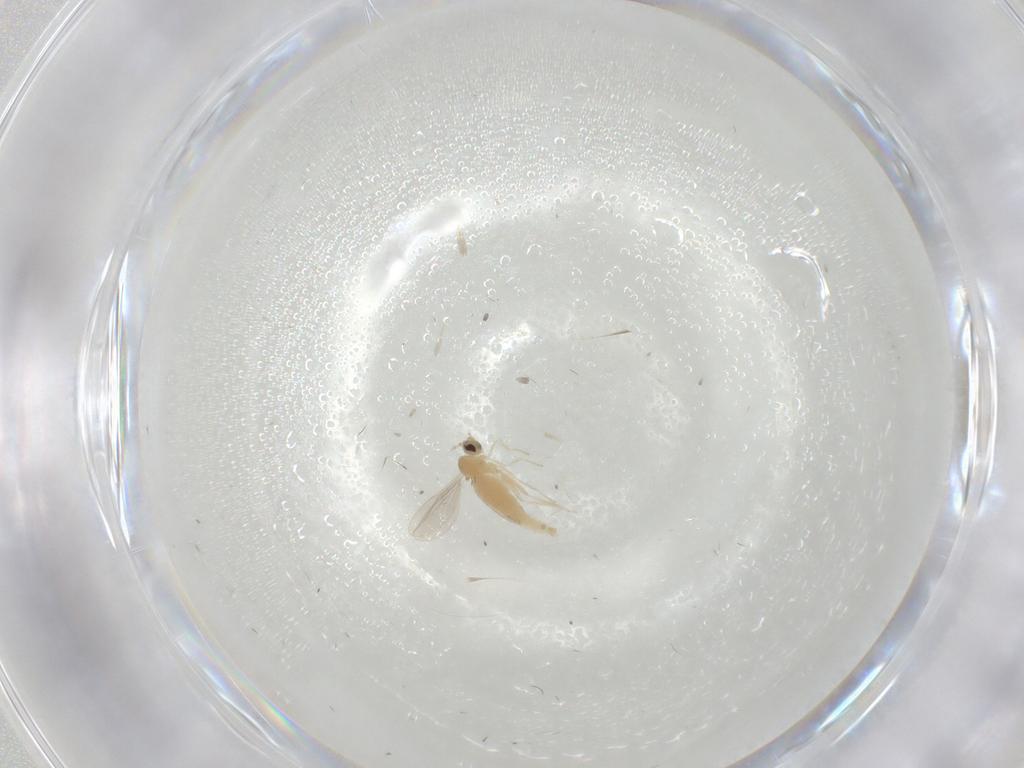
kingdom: Animalia
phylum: Arthropoda
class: Insecta
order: Diptera
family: Cecidomyiidae
